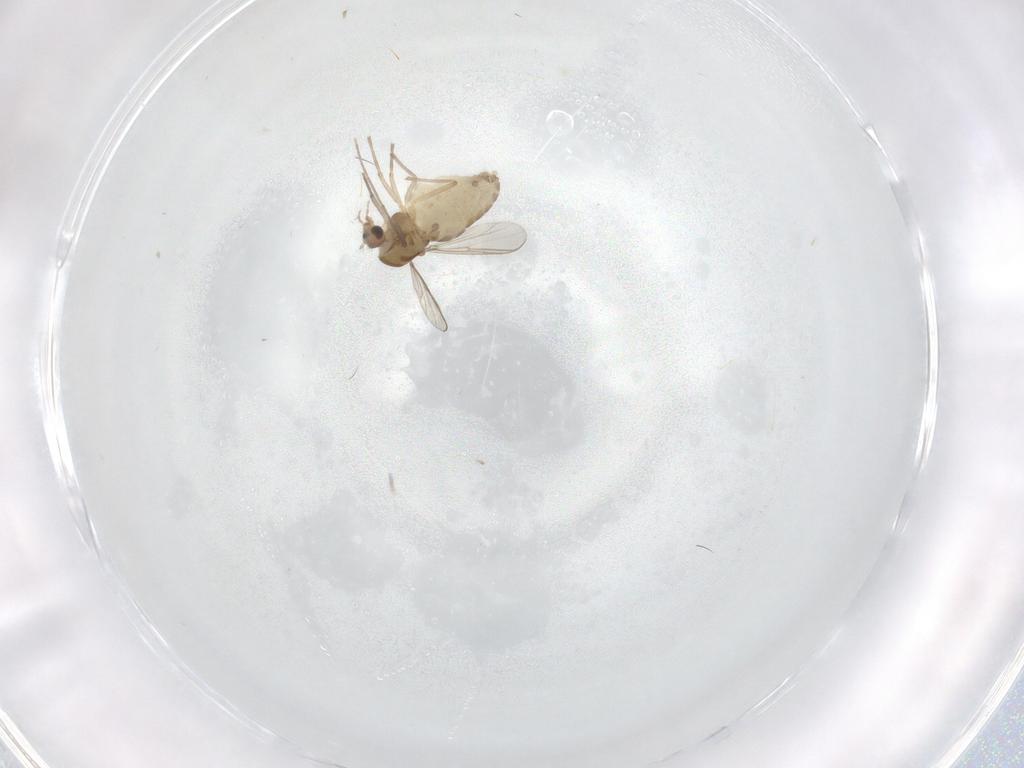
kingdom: Animalia
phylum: Arthropoda
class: Insecta
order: Diptera
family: Chironomidae
